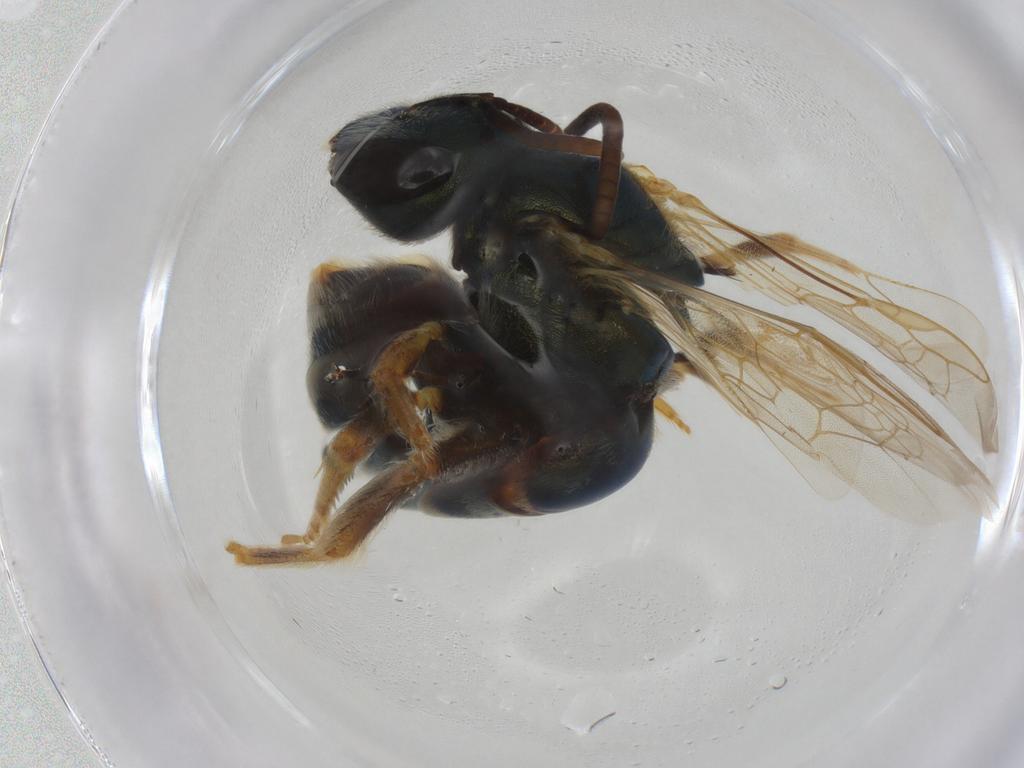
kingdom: Animalia
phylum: Arthropoda
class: Insecta
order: Hymenoptera
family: Halictidae
